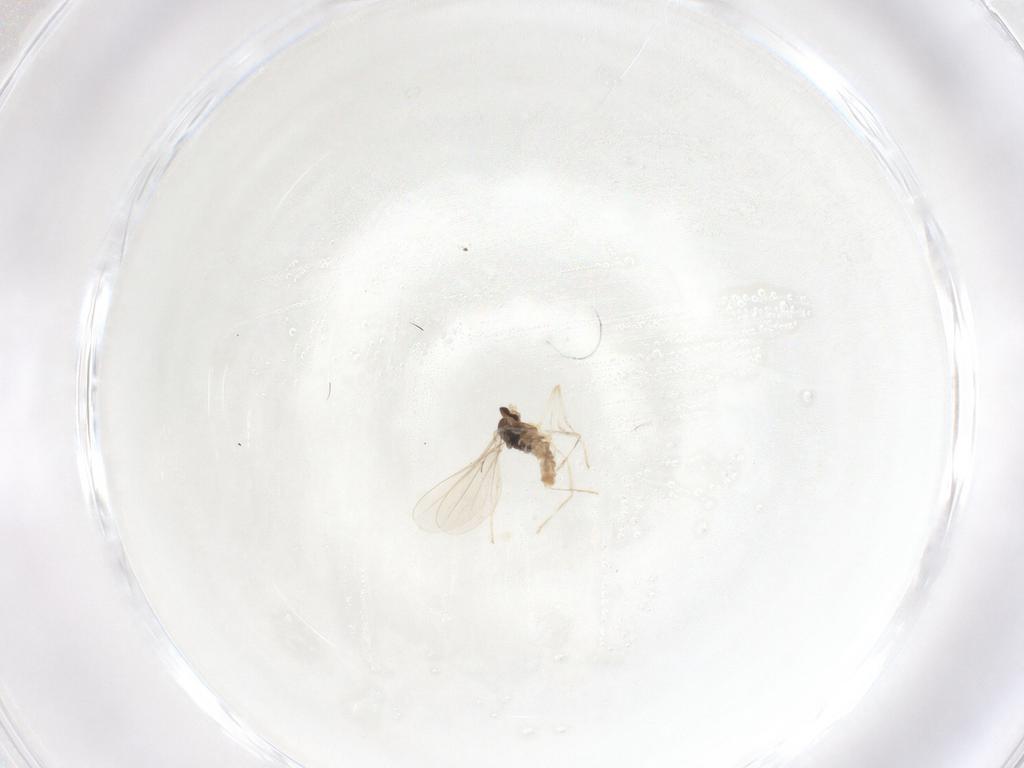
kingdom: Animalia
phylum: Arthropoda
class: Insecta
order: Diptera
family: Cecidomyiidae
